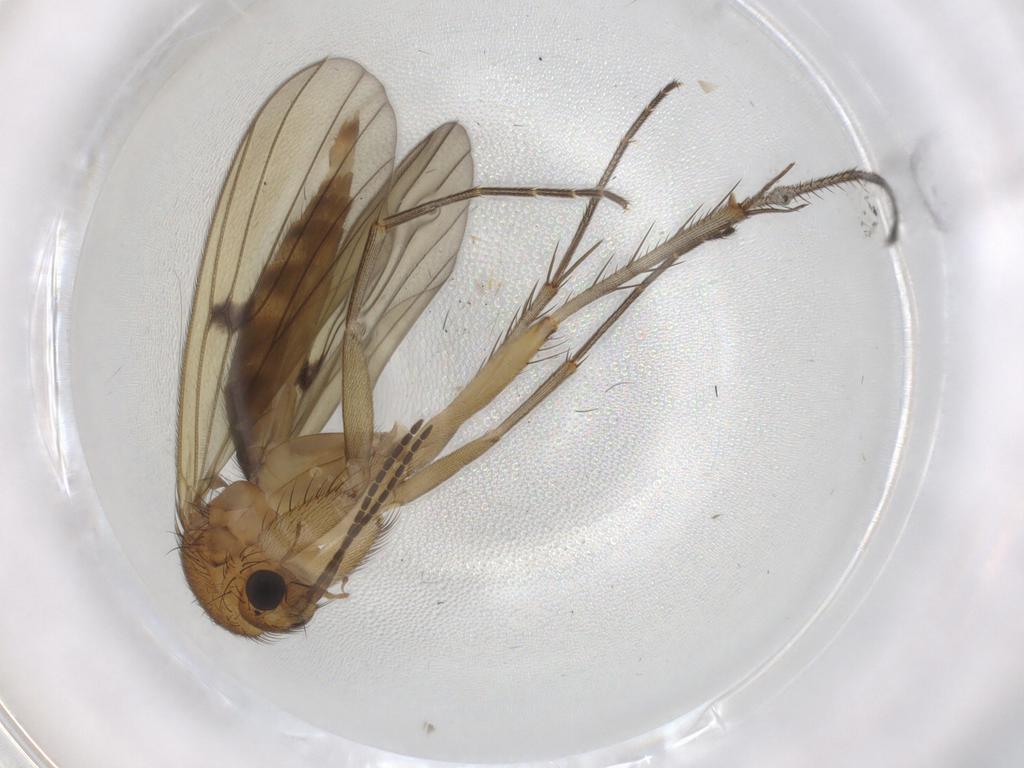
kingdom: Animalia
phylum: Arthropoda
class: Insecta
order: Diptera
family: Mycetophilidae
